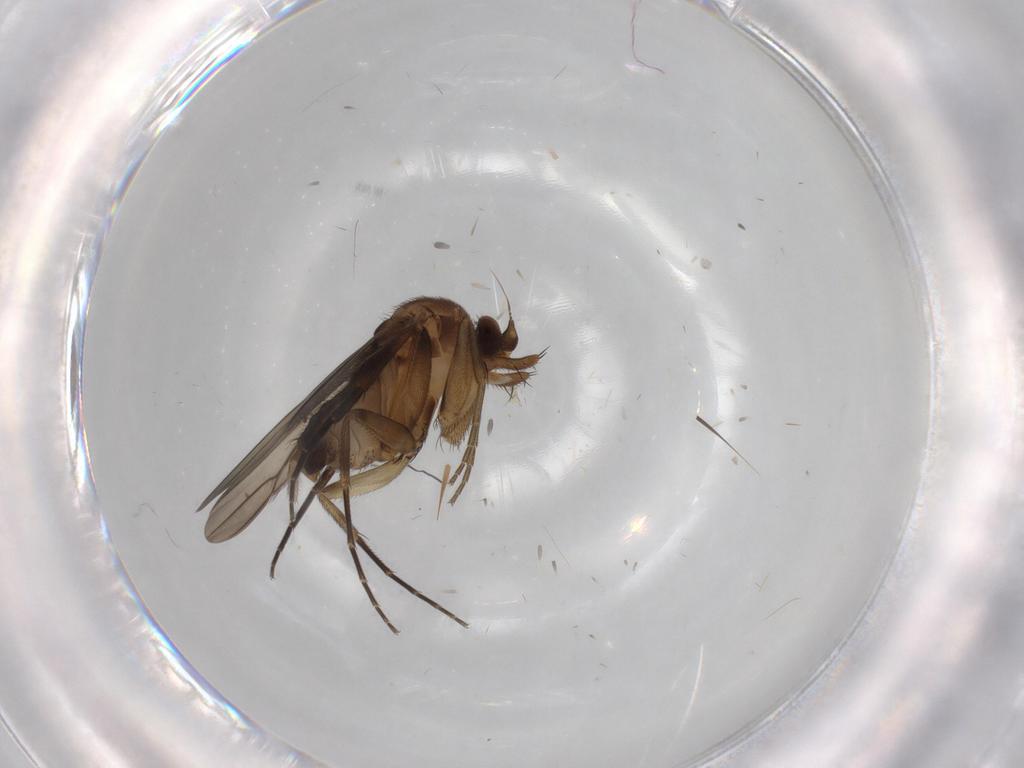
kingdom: Animalia
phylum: Arthropoda
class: Insecta
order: Diptera
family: Phoridae
